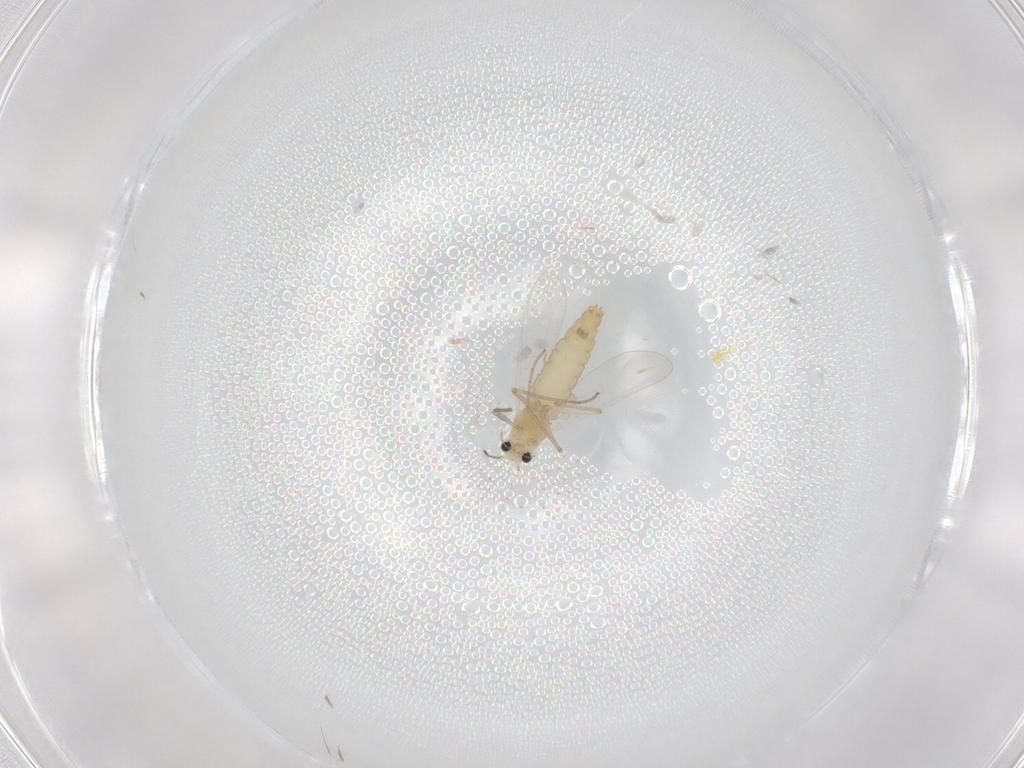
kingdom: Animalia
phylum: Arthropoda
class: Insecta
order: Diptera
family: Chironomidae
